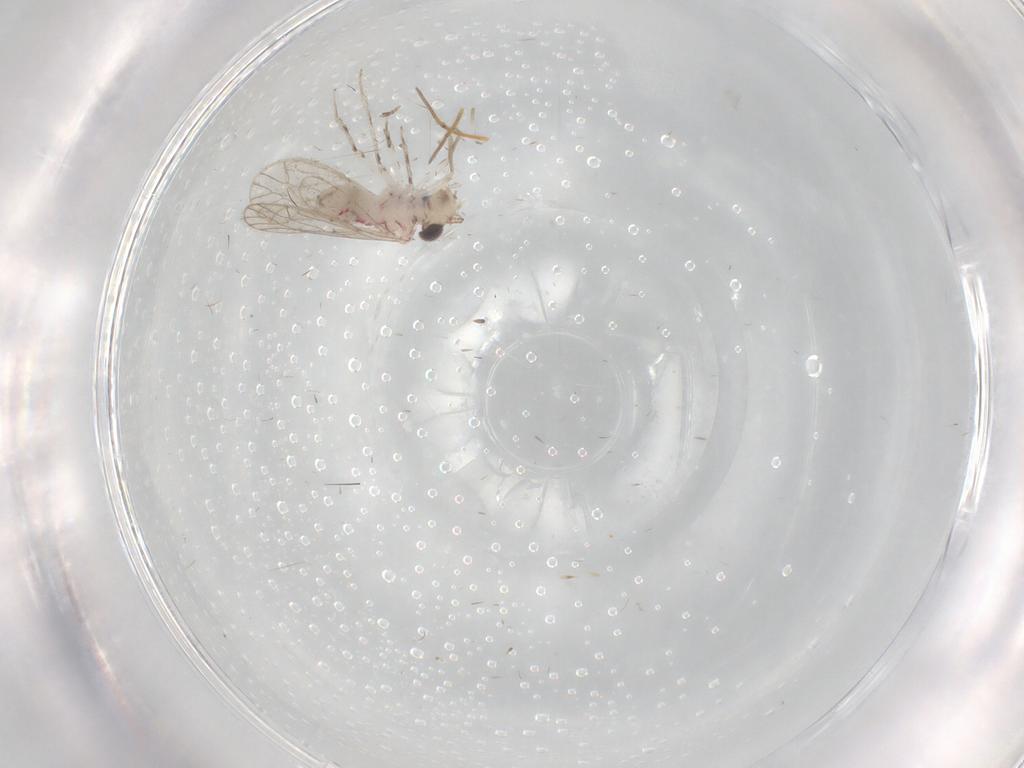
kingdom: Animalia
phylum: Arthropoda
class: Insecta
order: Psocodea
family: Caeciliusidae
